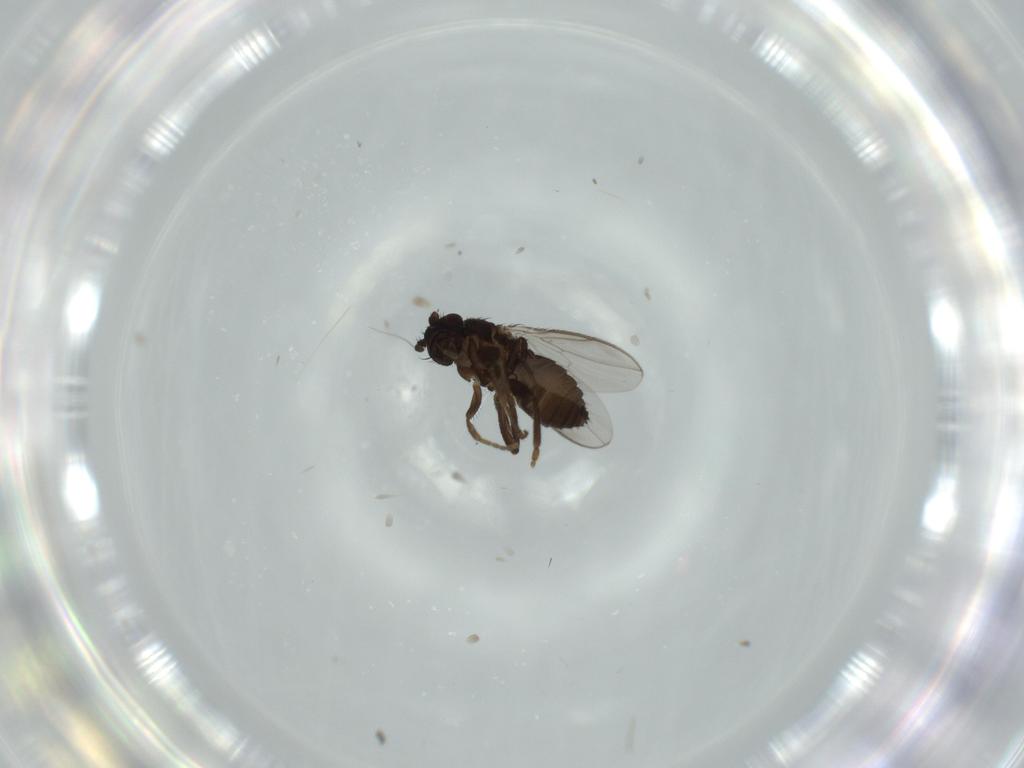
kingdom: Animalia
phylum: Arthropoda
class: Insecta
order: Diptera
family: Sphaeroceridae
